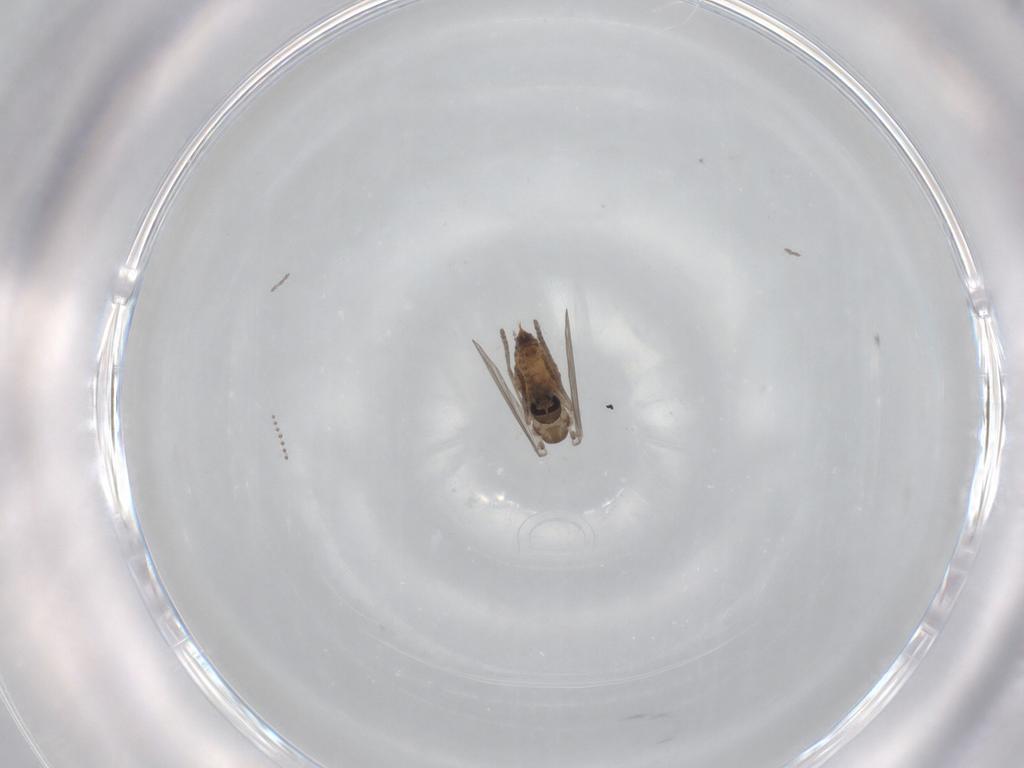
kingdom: Animalia
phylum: Arthropoda
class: Insecta
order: Diptera
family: Psychodidae
